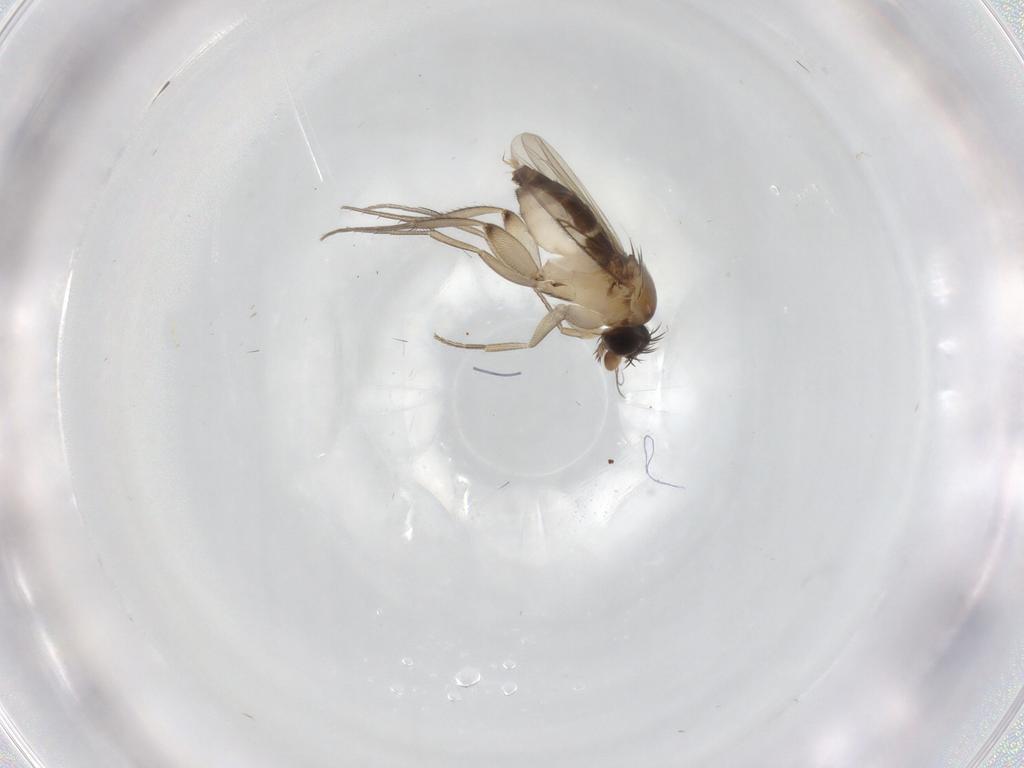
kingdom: Animalia
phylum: Arthropoda
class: Insecta
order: Diptera
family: Phoridae
